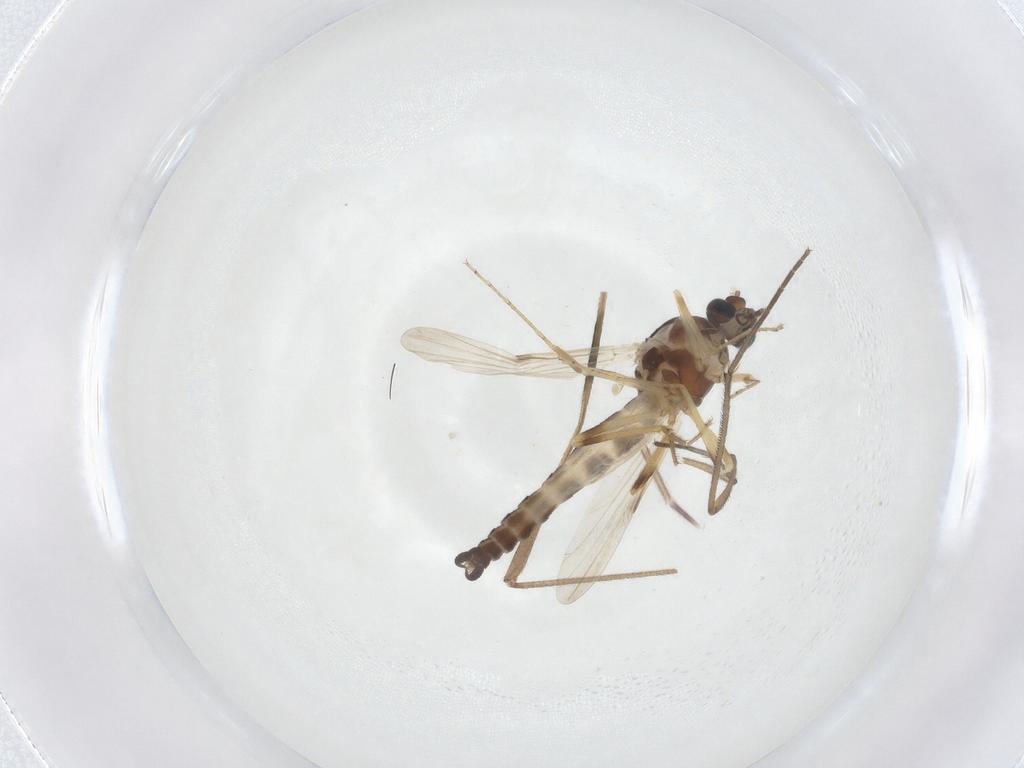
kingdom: Animalia
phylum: Arthropoda
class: Insecta
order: Diptera
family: Ceratopogonidae
